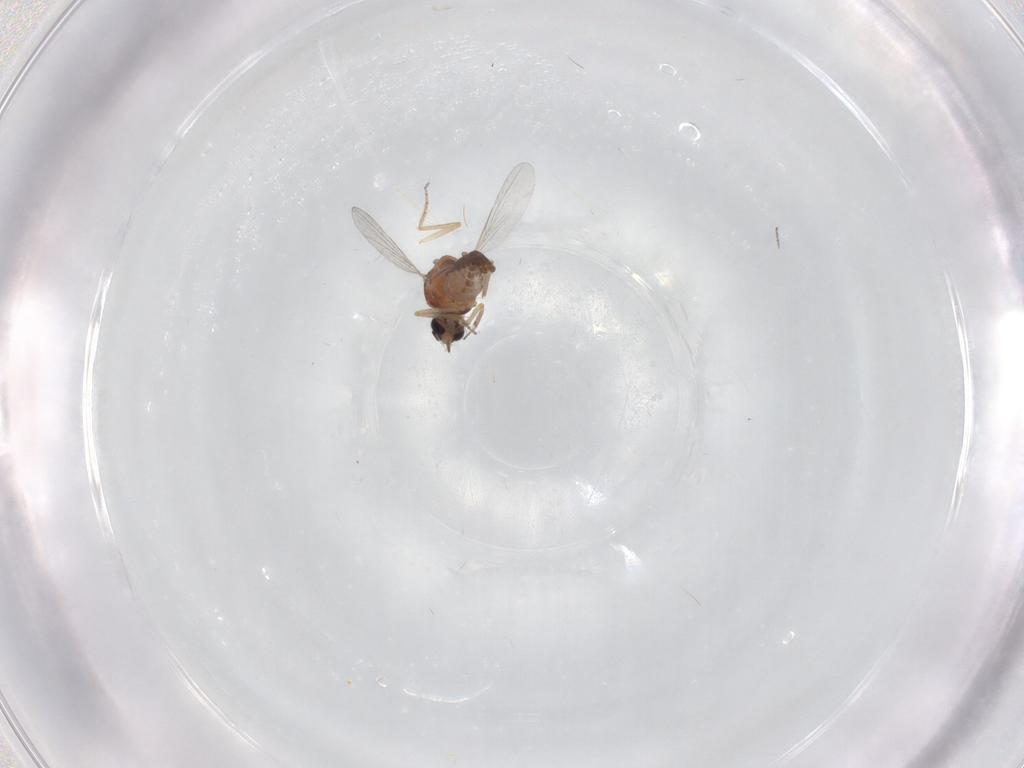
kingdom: Animalia
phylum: Arthropoda
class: Insecta
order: Diptera
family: Ceratopogonidae
